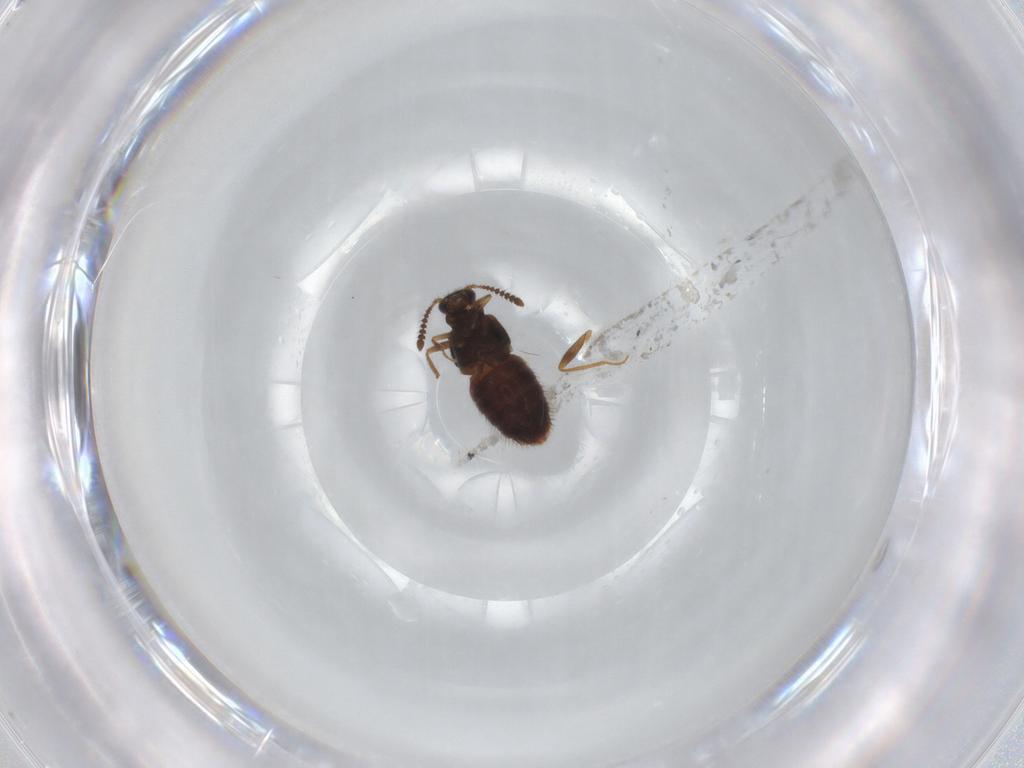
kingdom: Animalia
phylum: Arthropoda
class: Insecta
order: Coleoptera
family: Staphylinidae
